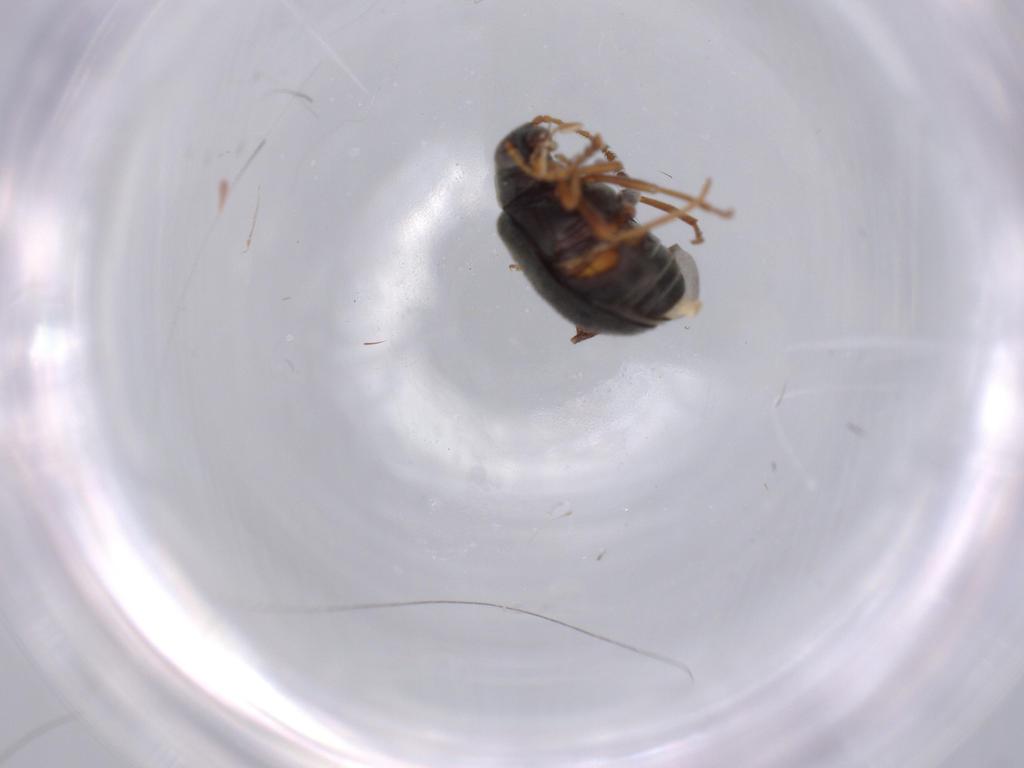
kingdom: Animalia
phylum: Arthropoda
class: Insecta
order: Coleoptera
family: Aderidae
